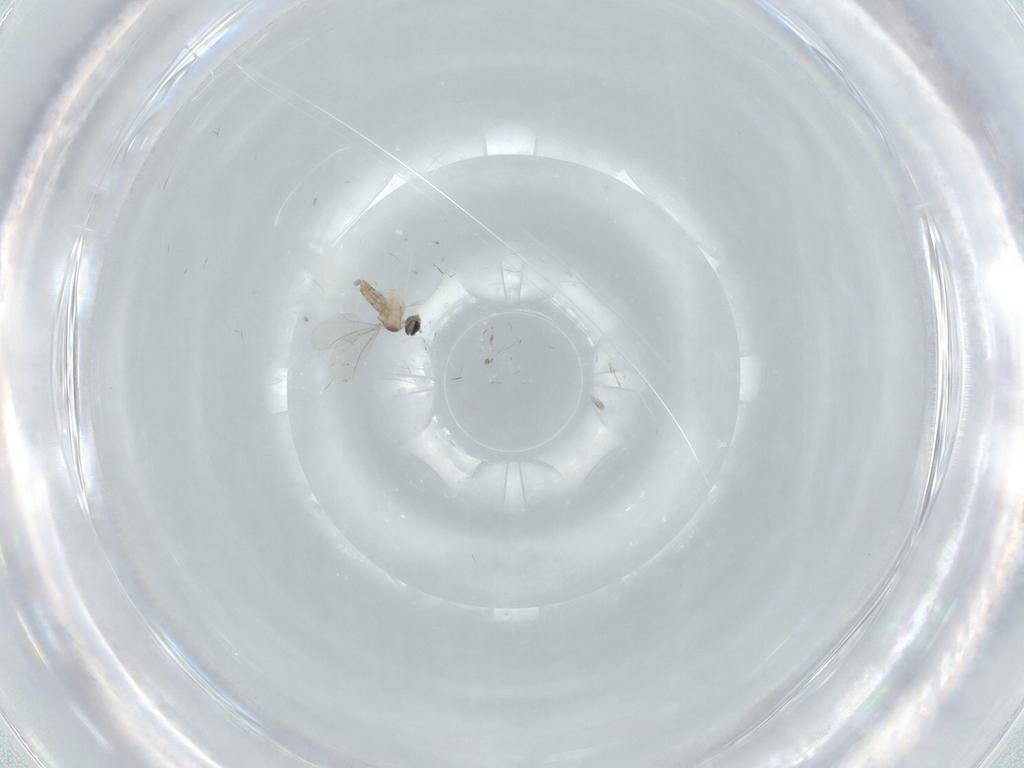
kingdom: Animalia
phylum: Arthropoda
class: Insecta
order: Diptera
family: Cecidomyiidae
